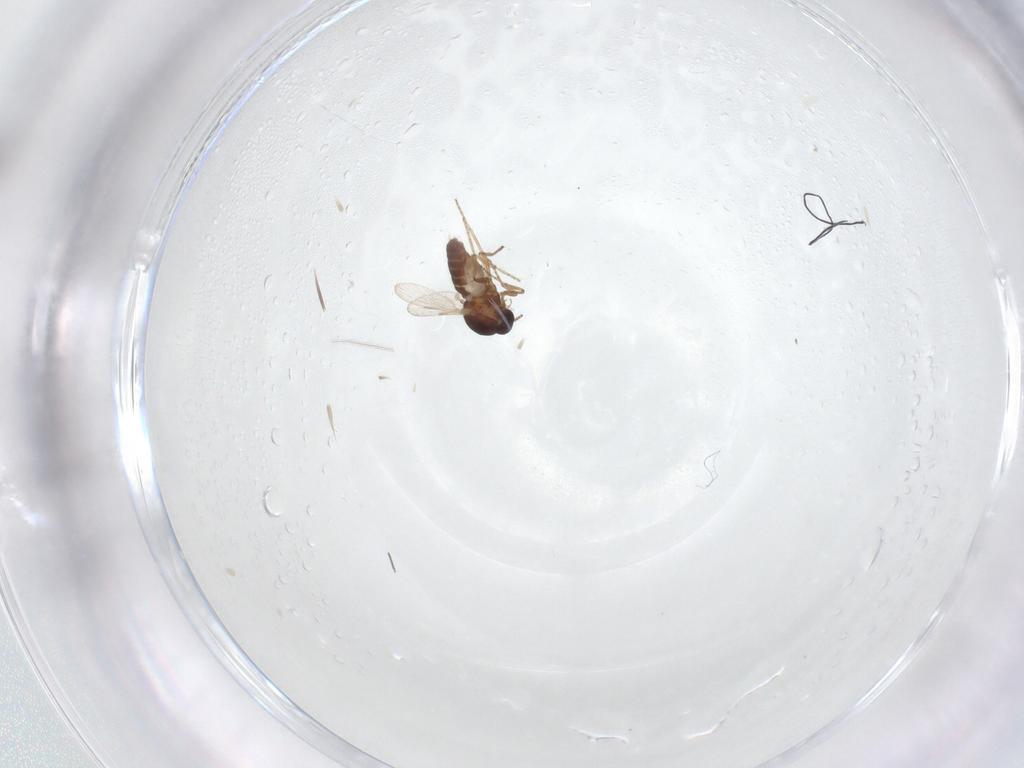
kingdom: Animalia
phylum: Arthropoda
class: Insecta
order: Diptera
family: Ceratopogonidae
